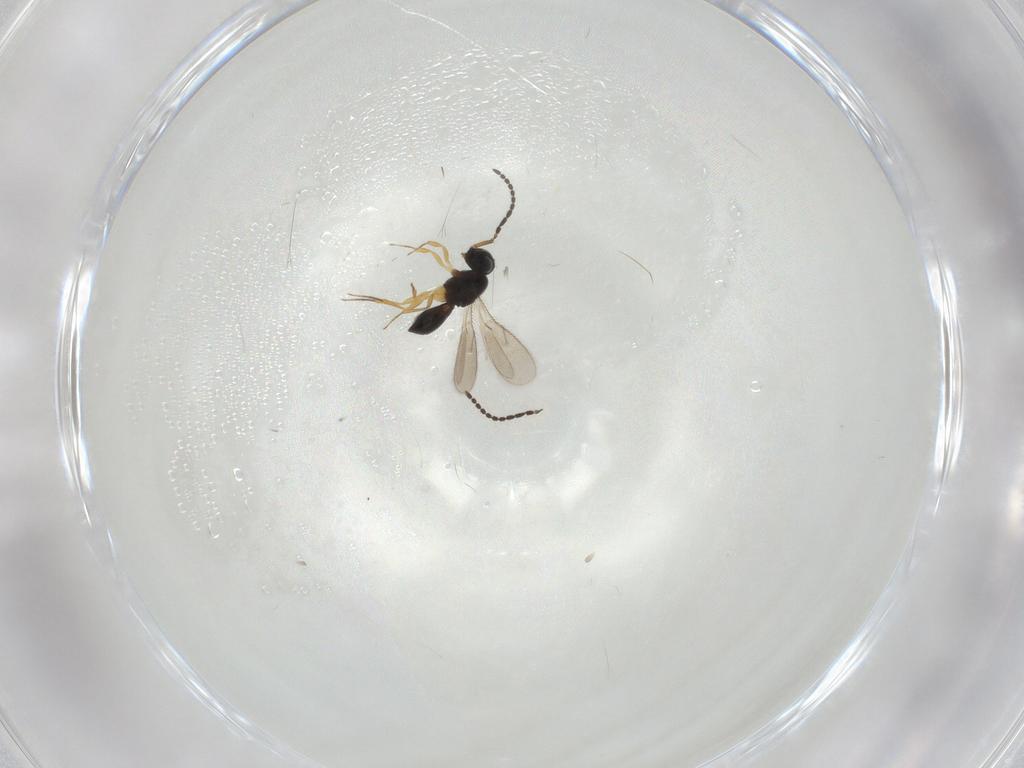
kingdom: Animalia
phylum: Arthropoda
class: Insecta
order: Hymenoptera
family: Scelionidae
